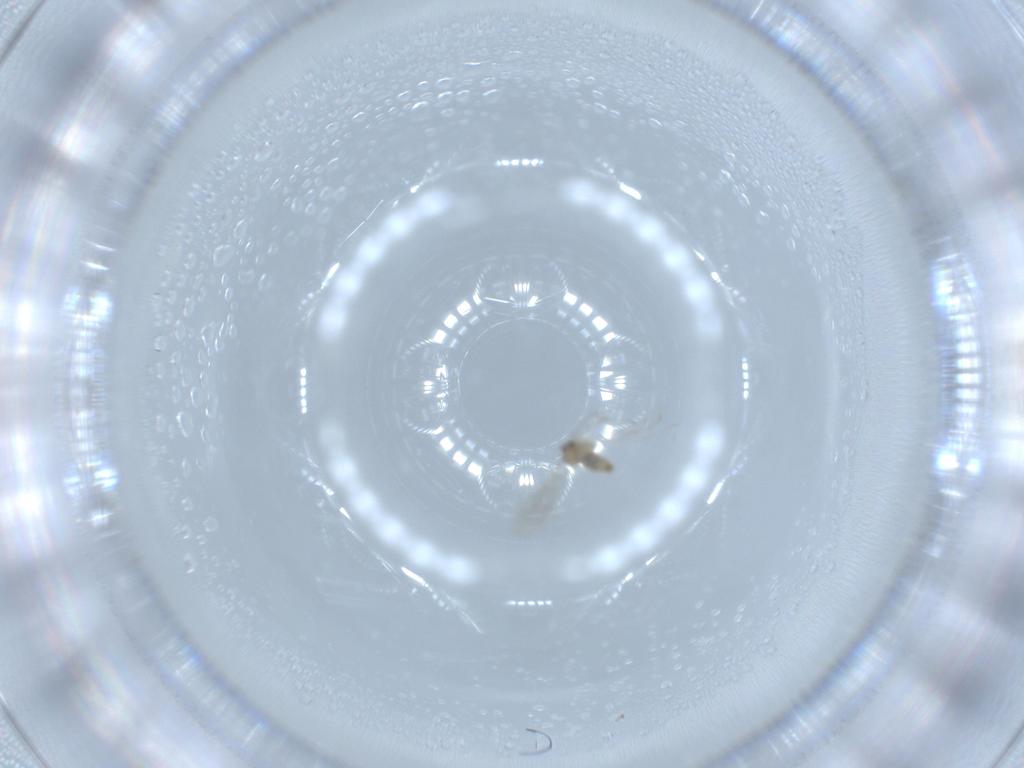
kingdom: Animalia
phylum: Arthropoda
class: Insecta
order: Diptera
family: Cecidomyiidae
